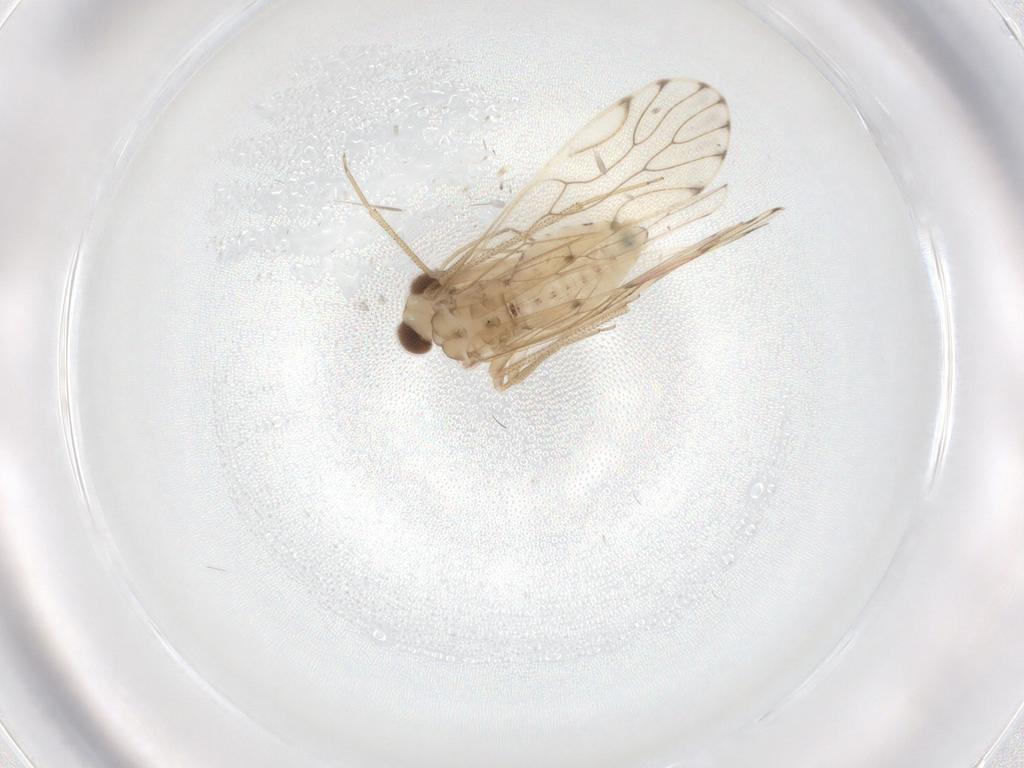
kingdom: Animalia
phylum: Arthropoda
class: Insecta
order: Psocodea
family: Epipsocidae
